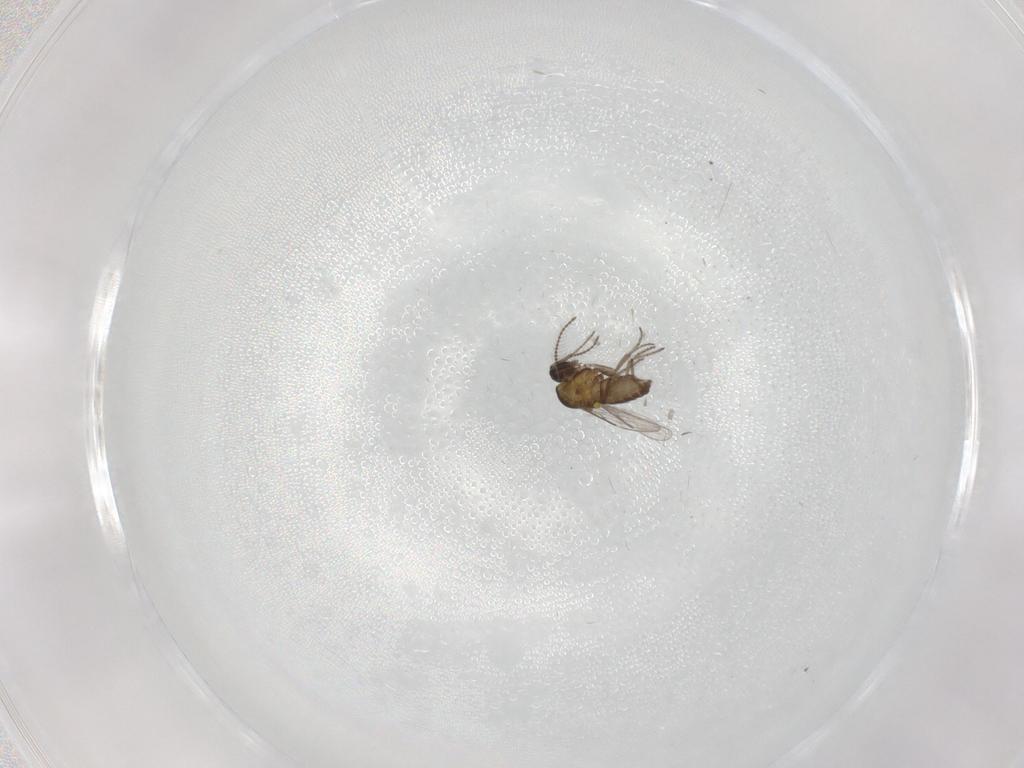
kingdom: Animalia
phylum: Arthropoda
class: Insecta
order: Diptera
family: Ceratopogonidae
